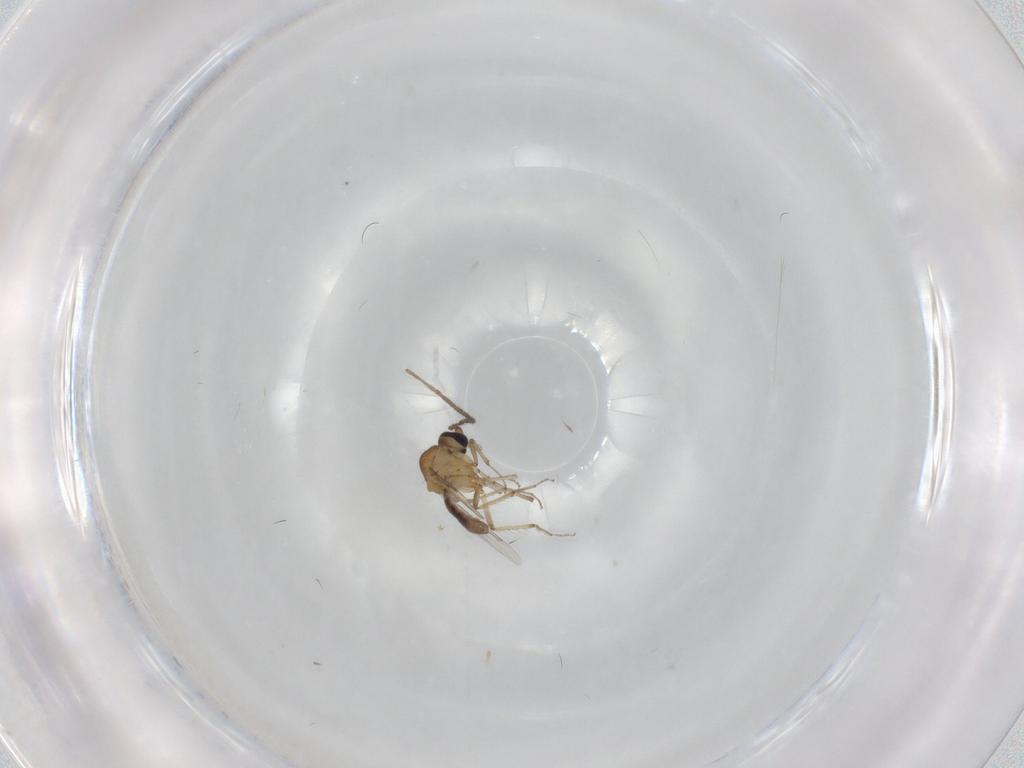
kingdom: Animalia
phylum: Arthropoda
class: Insecta
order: Diptera
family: Ceratopogonidae
